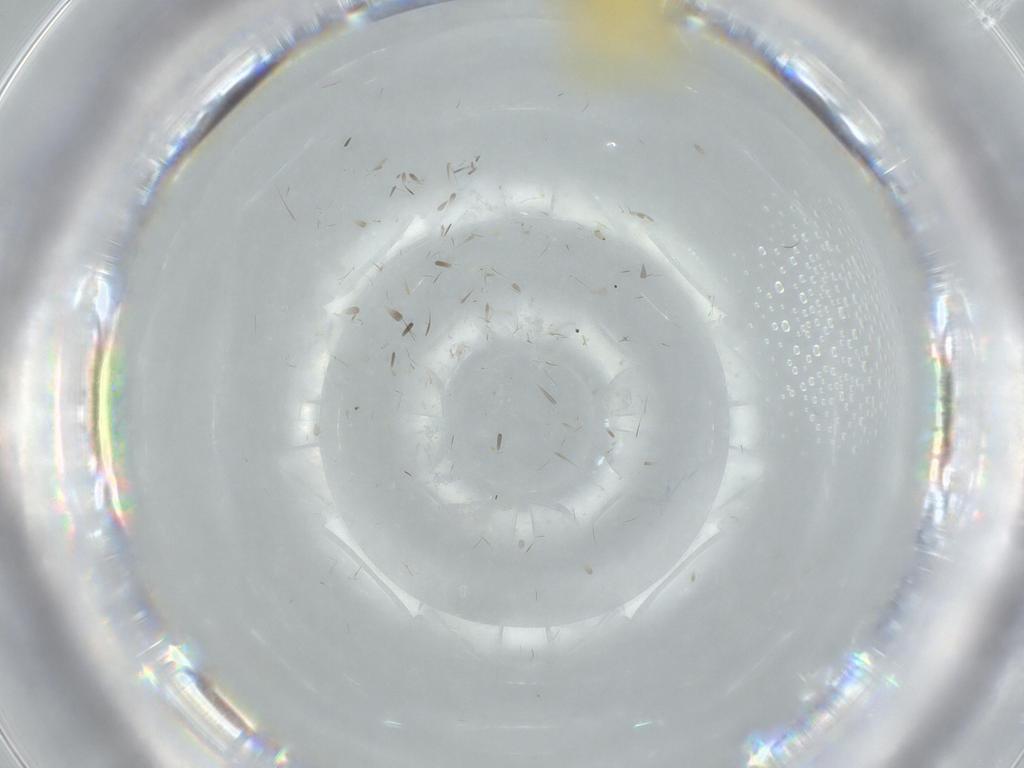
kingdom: Animalia
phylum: Arthropoda
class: Insecta
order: Hemiptera
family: Cicadellidae
